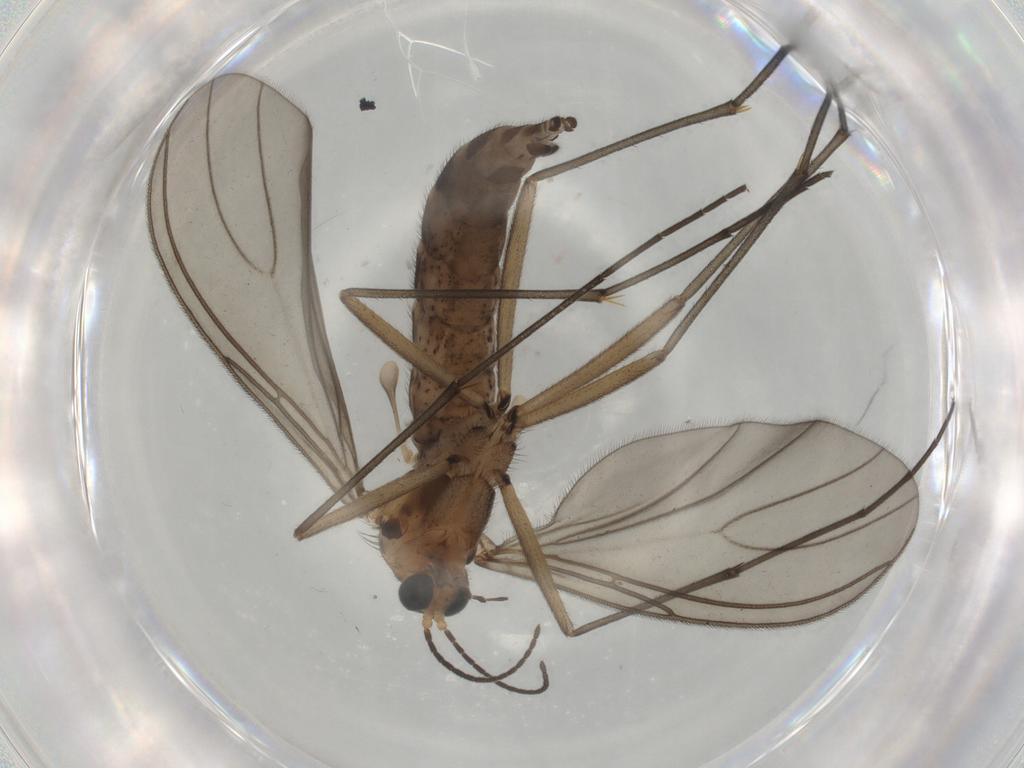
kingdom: Animalia
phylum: Arthropoda
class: Insecta
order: Diptera
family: Sciaridae
